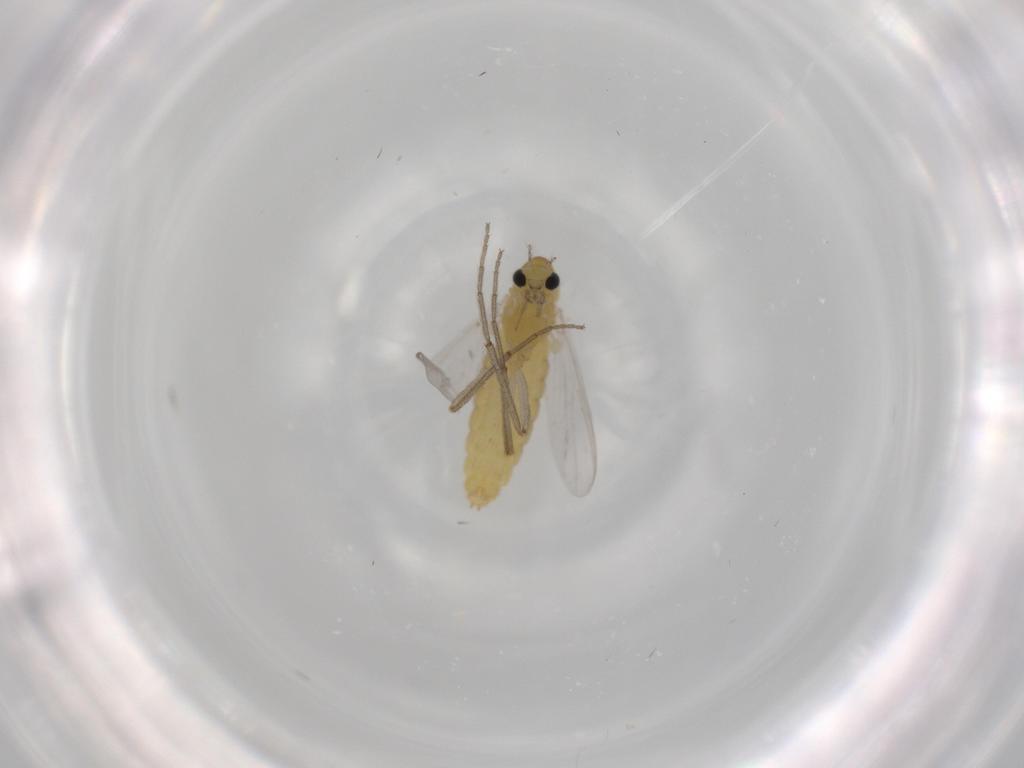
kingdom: Animalia
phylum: Arthropoda
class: Insecta
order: Diptera
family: Chironomidae
